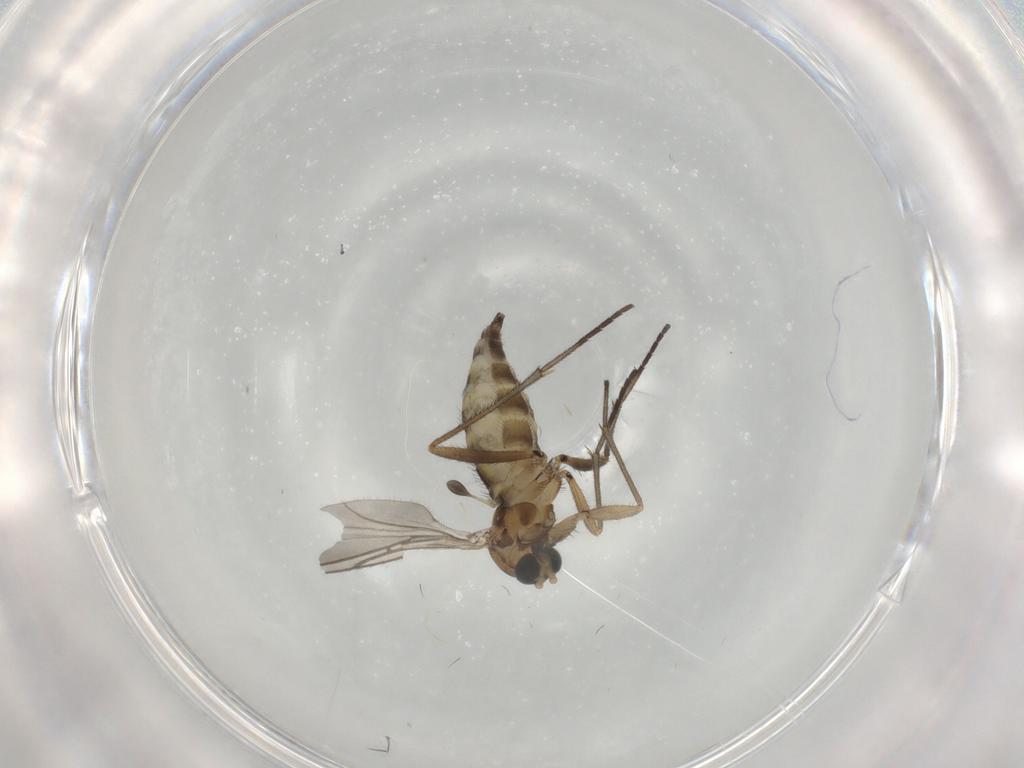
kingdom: Animalia
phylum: Arthropoda
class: Insecta
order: Diptera
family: Sciaridae
